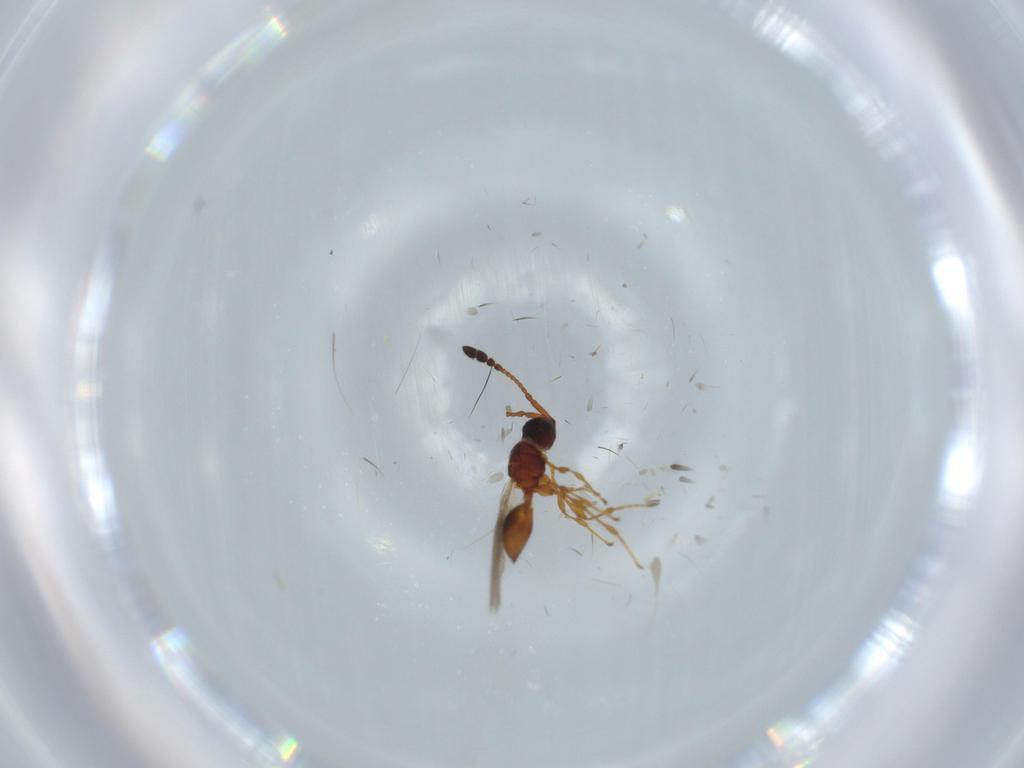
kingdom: Animalia
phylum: Arthropoda
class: Insecta
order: Hymenoptera
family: Diapriidae
